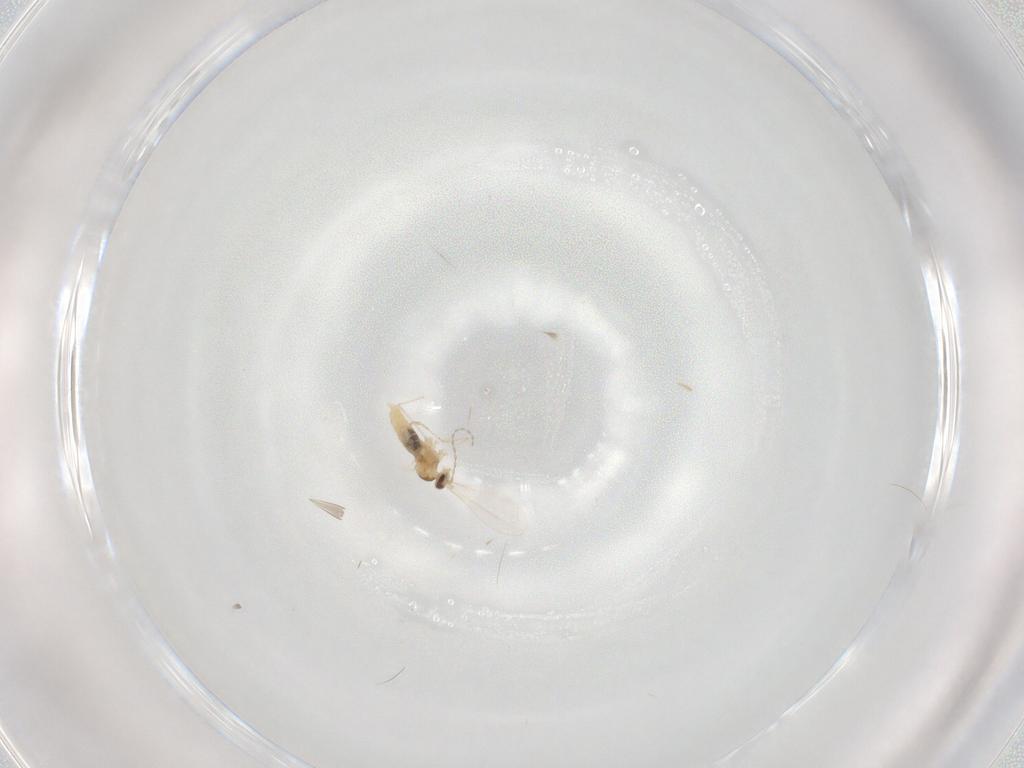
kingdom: Animalia
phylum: Arthropoda
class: Insecta
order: Diptera
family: Cecidomyiidae
